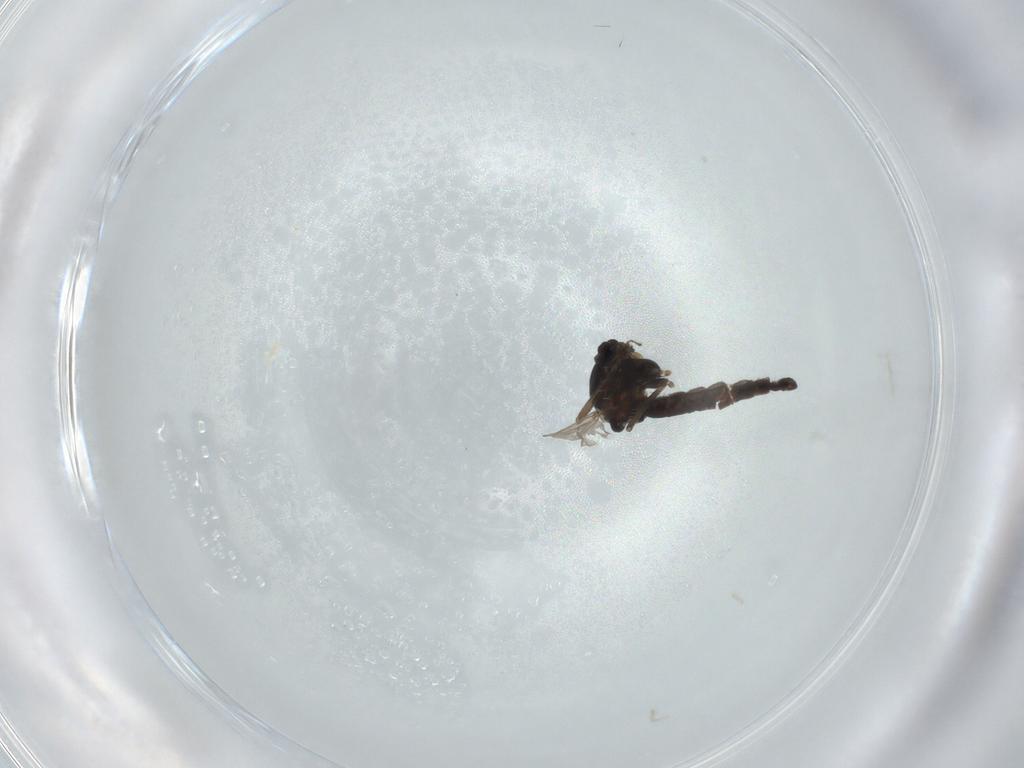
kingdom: Animalia
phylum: Arthropoda
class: Insecta
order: Diptera
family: Chironomidae
